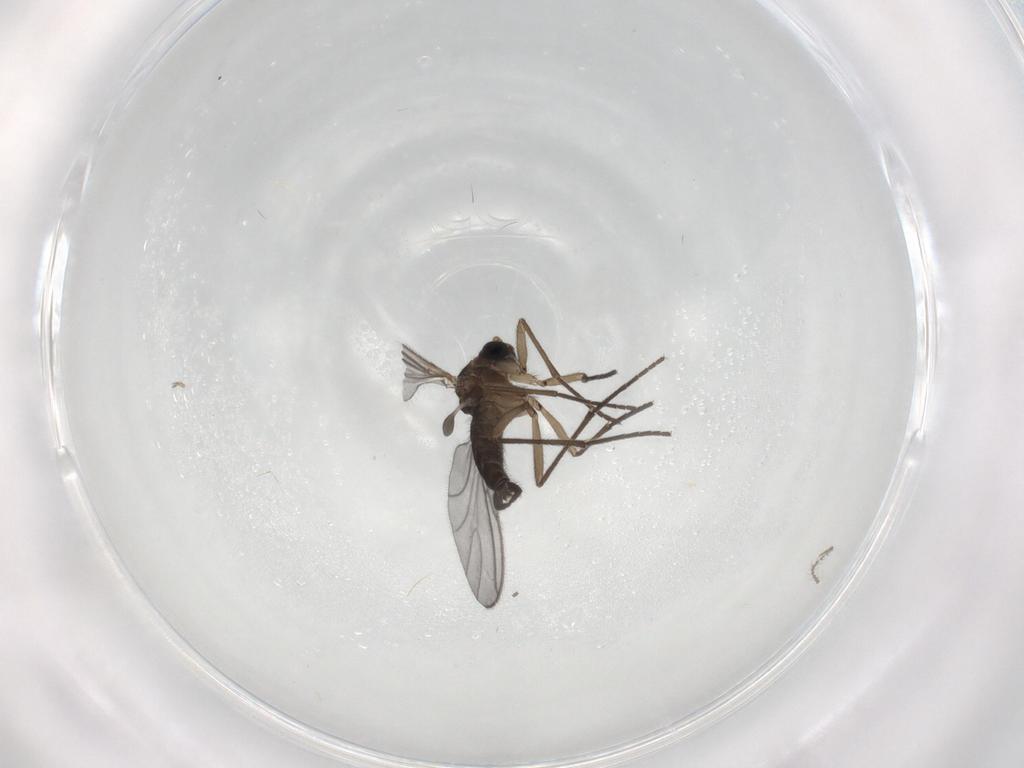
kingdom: Animalia
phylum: Arthropoda
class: Insecta
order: Diptera
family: Sciaridae
